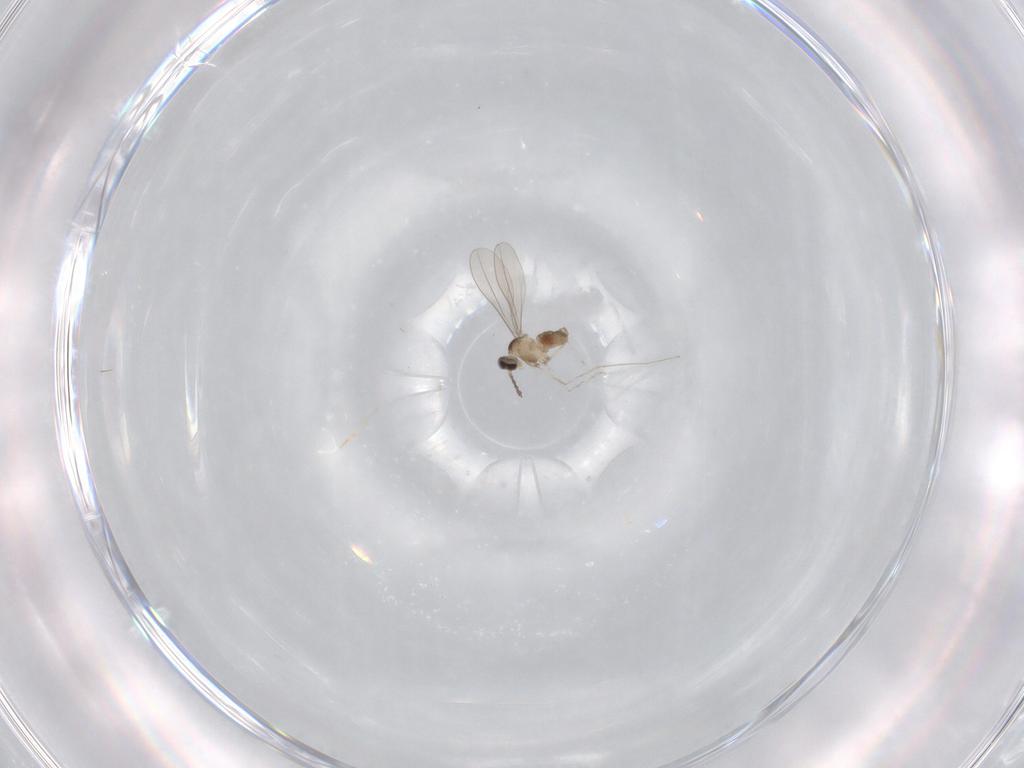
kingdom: Animalia
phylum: Arthropoda
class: Insecta
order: Diptera
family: Cecidomyiidae
